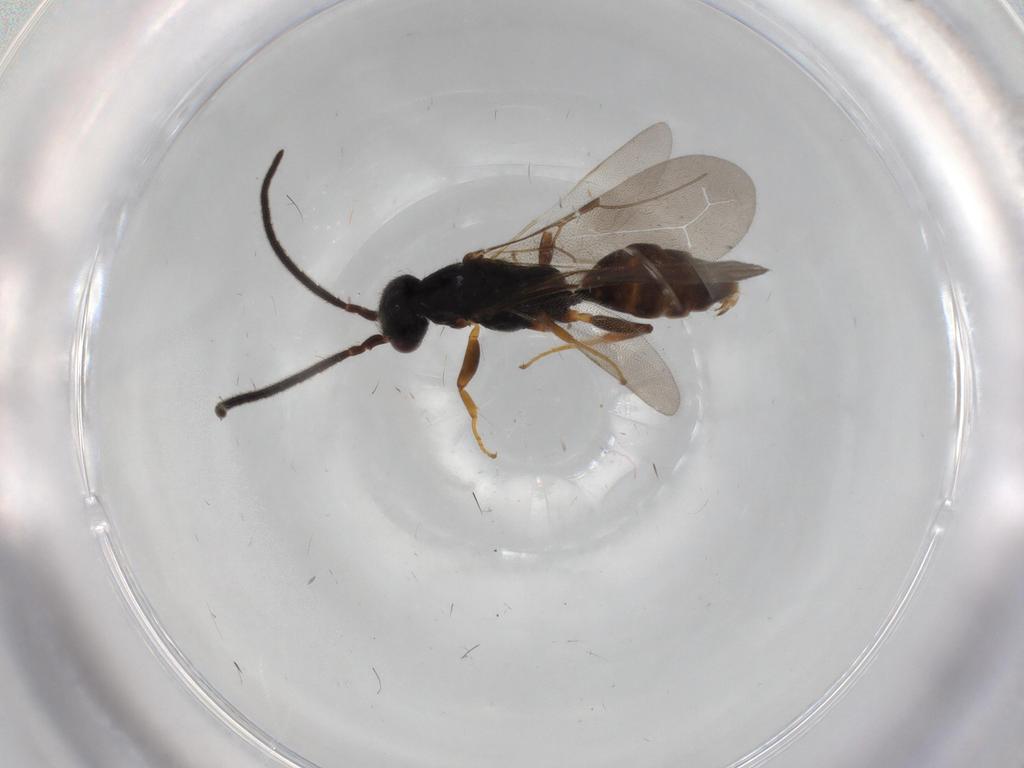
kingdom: Animalia
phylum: Arthropoda
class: Insecta
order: Hymenoptera
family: Bethylidae
